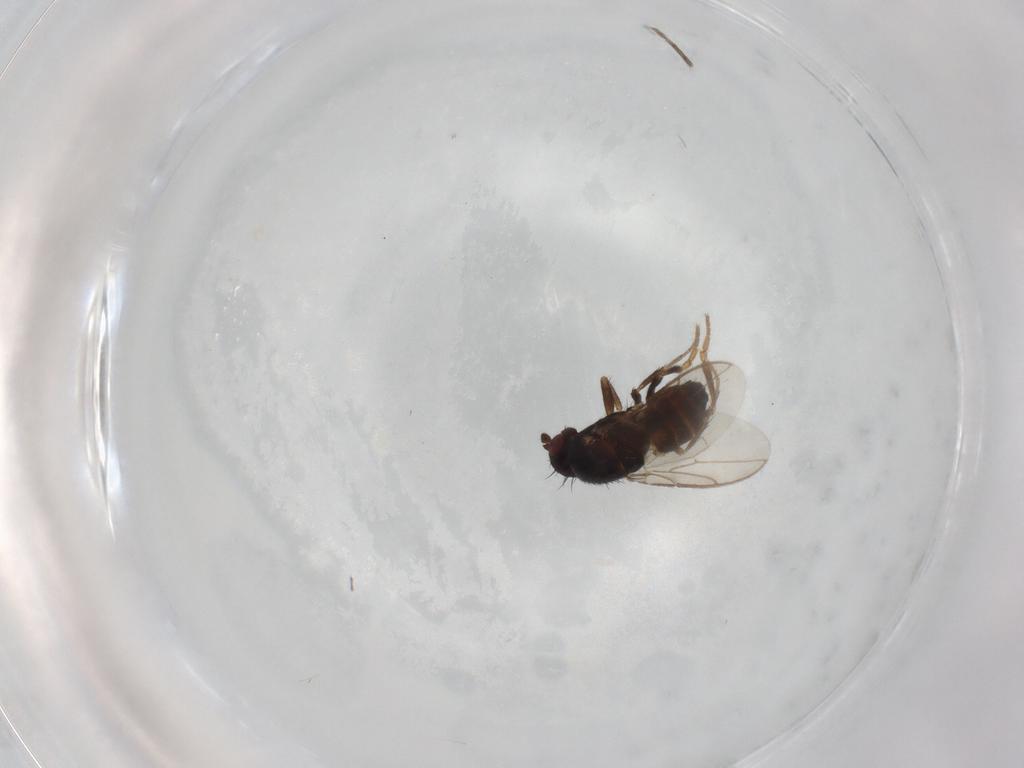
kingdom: Animalia
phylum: Arthropoda
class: Insecta
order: Diptera
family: Sphaeroceridae
